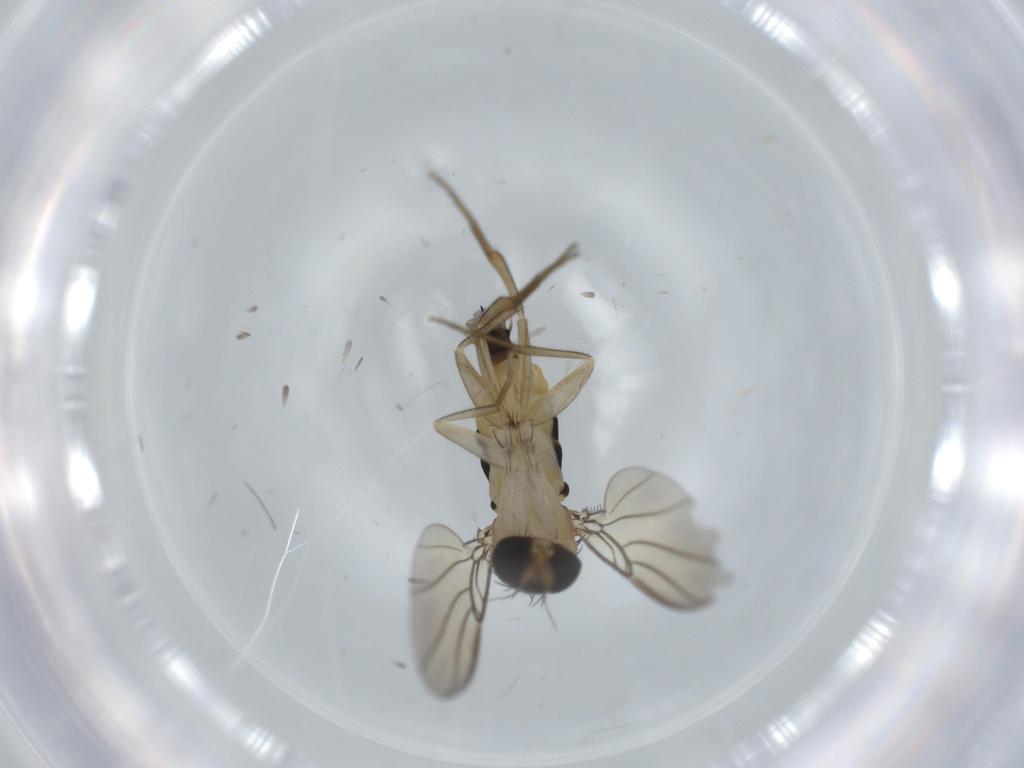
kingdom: Animalia
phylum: Arthropoda
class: Insecta
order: Diptera
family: Phoridae
